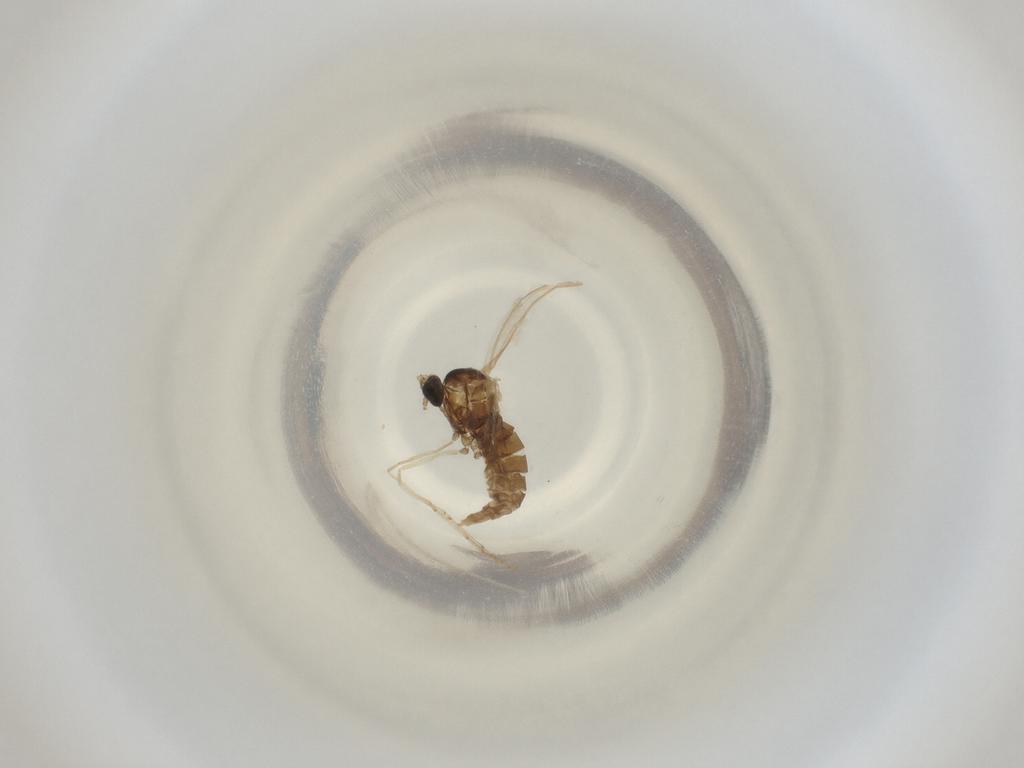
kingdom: Animalia
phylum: Arthropoda
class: Insecta
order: Diptera
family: Cecidomyiidae
